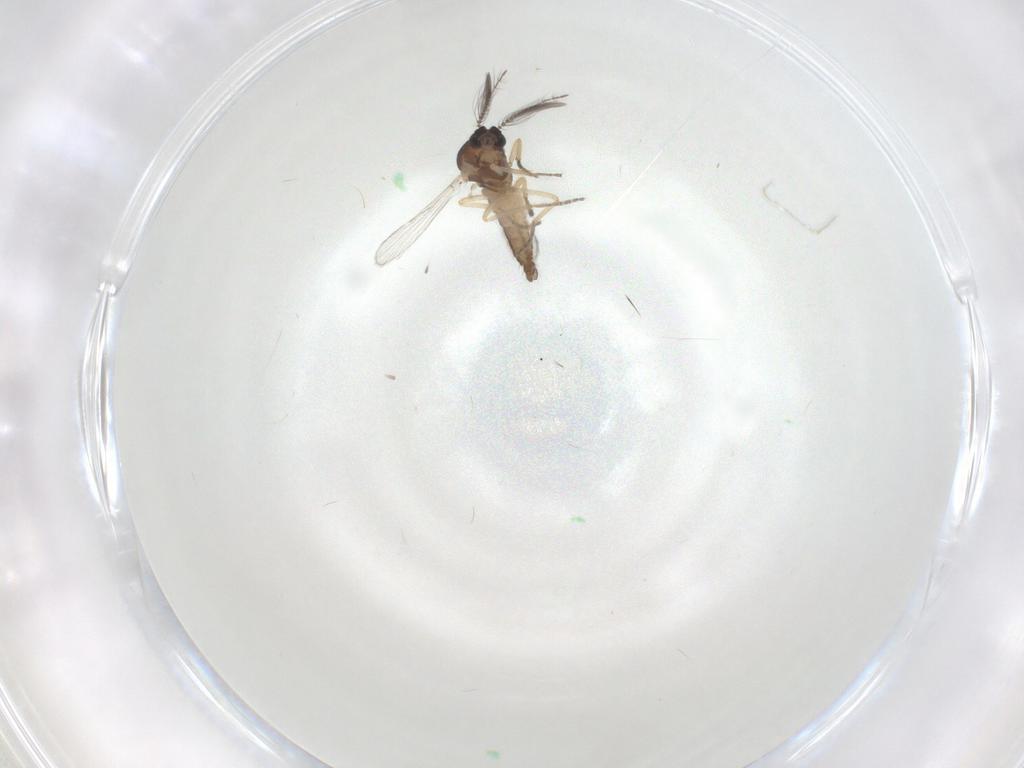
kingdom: Animalia
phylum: Arthropoda
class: Insecta
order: Diptera
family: Ceratopogonidae
